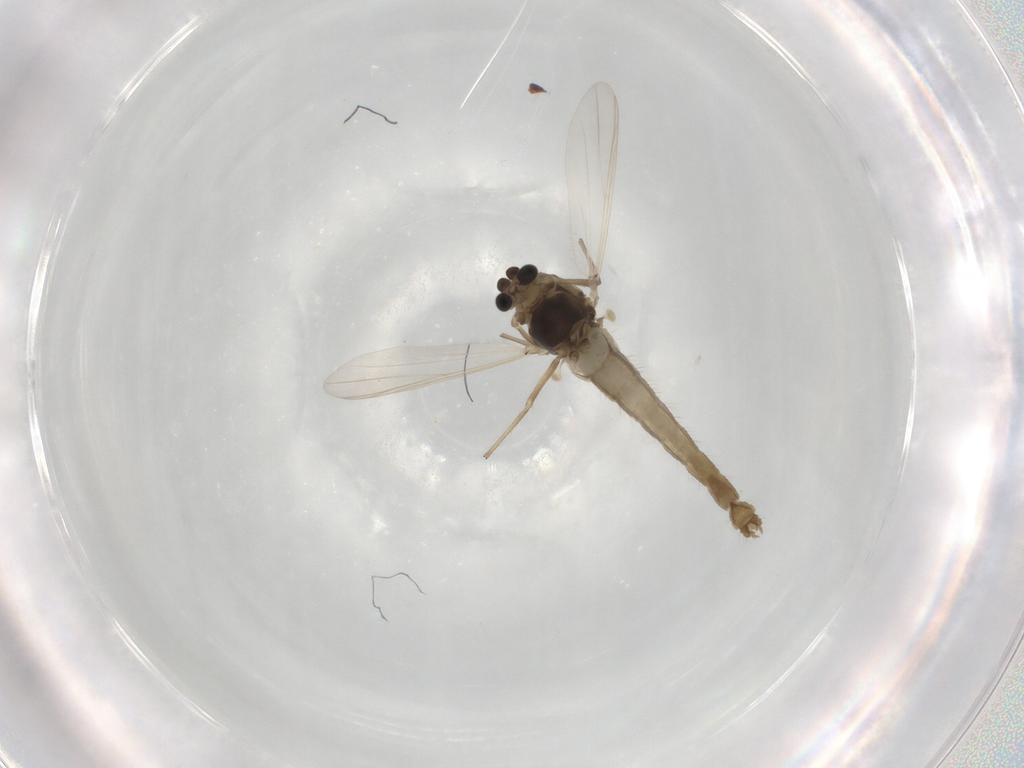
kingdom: Animalia
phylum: Arthropoda
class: Insecta
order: Diptera
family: Chironomidae
